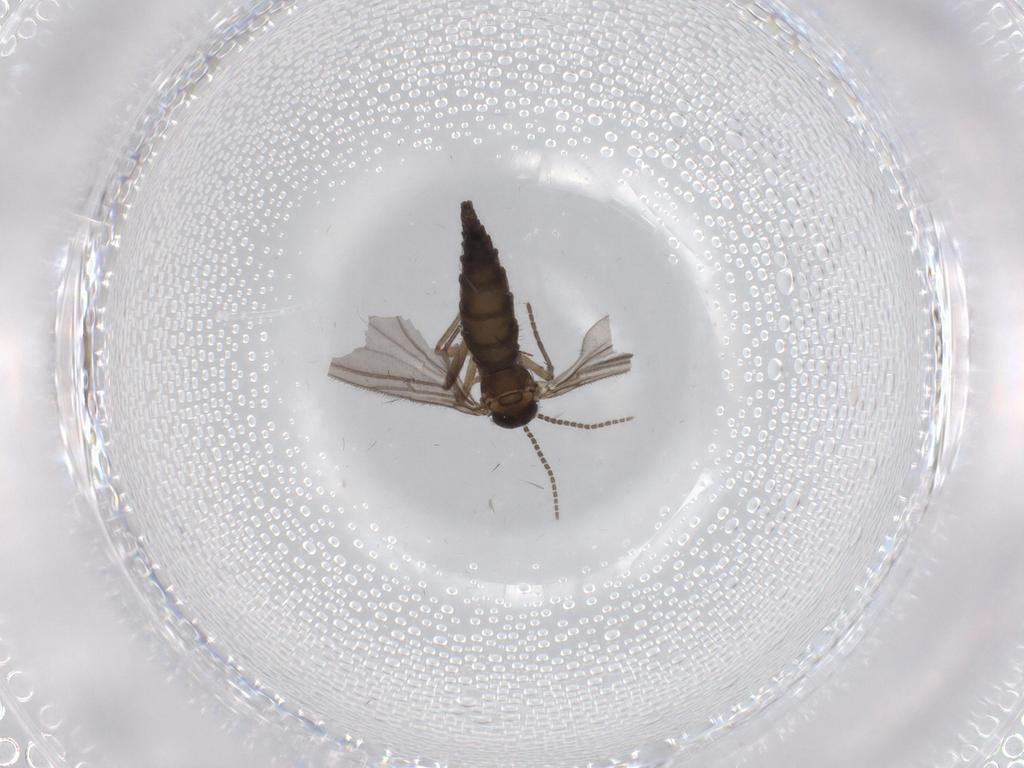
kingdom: Animalia
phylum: Arthropoda
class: Insecta
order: Diptera
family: Sciaridae
